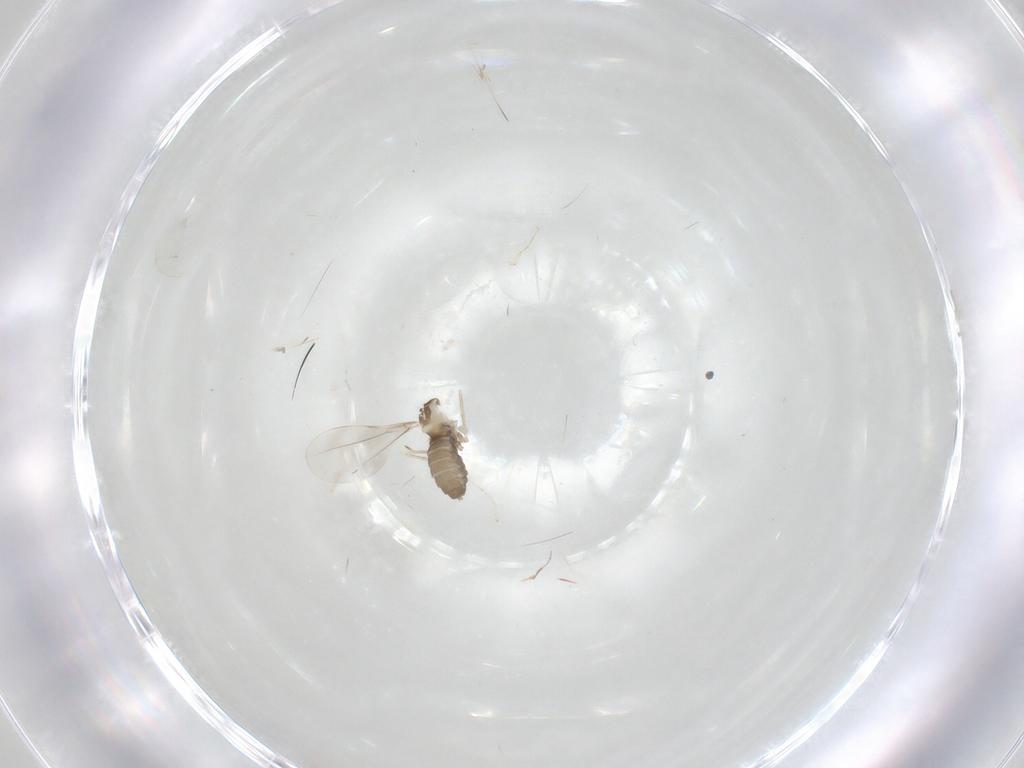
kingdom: Animalia
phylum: Arthropoda
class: Insecta
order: Diptera
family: Cecidomyiidae
